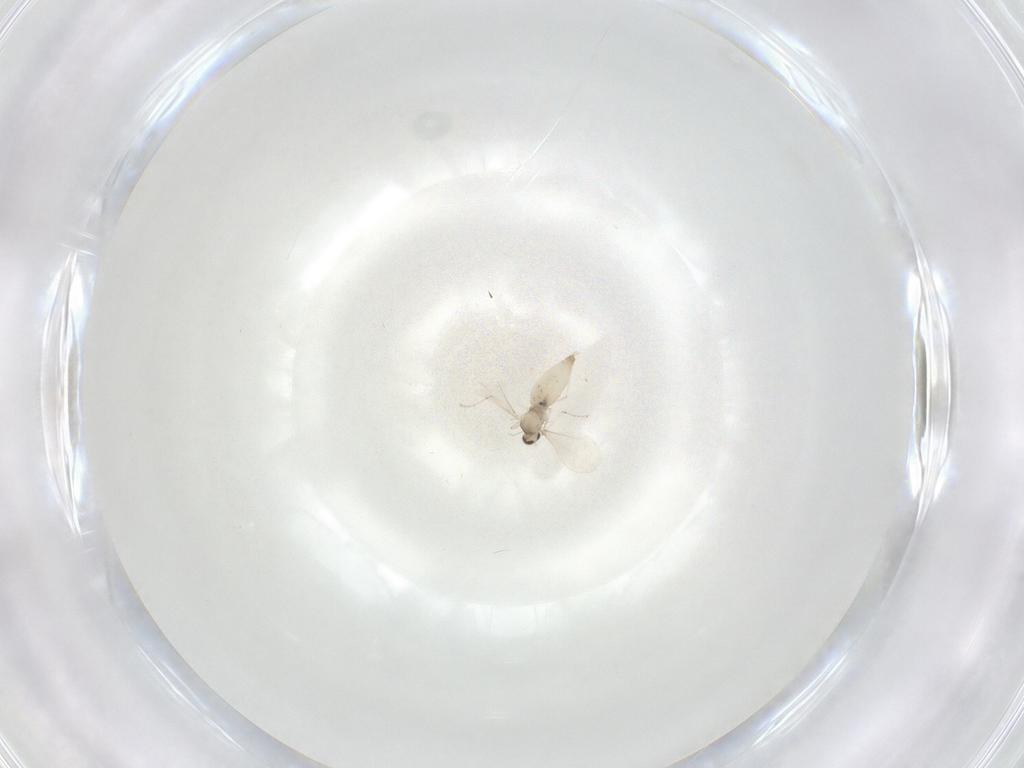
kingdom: Animalia
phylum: Arthropoda
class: Insecta
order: Diptera
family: Cecidomyiidae
